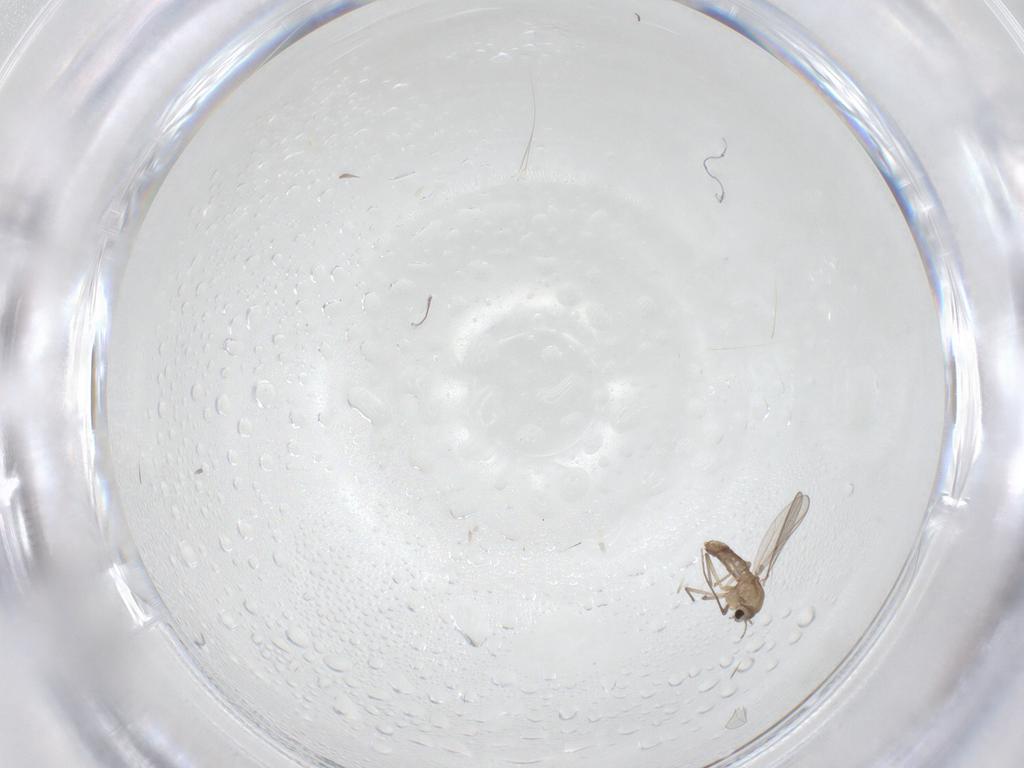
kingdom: Animalia
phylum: Arthropoda
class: Insecta
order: Diptera
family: Chironomidae
